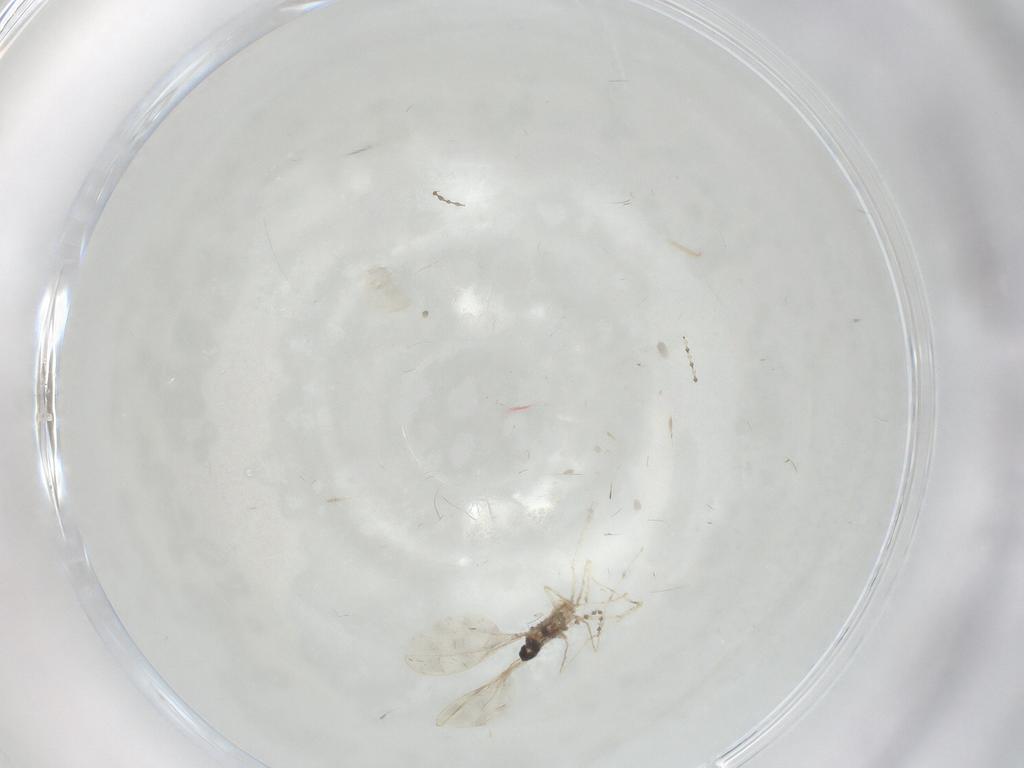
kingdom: Animalia
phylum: Arthropoda
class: Insecta
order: Diptera
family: Cecidomyiidae
